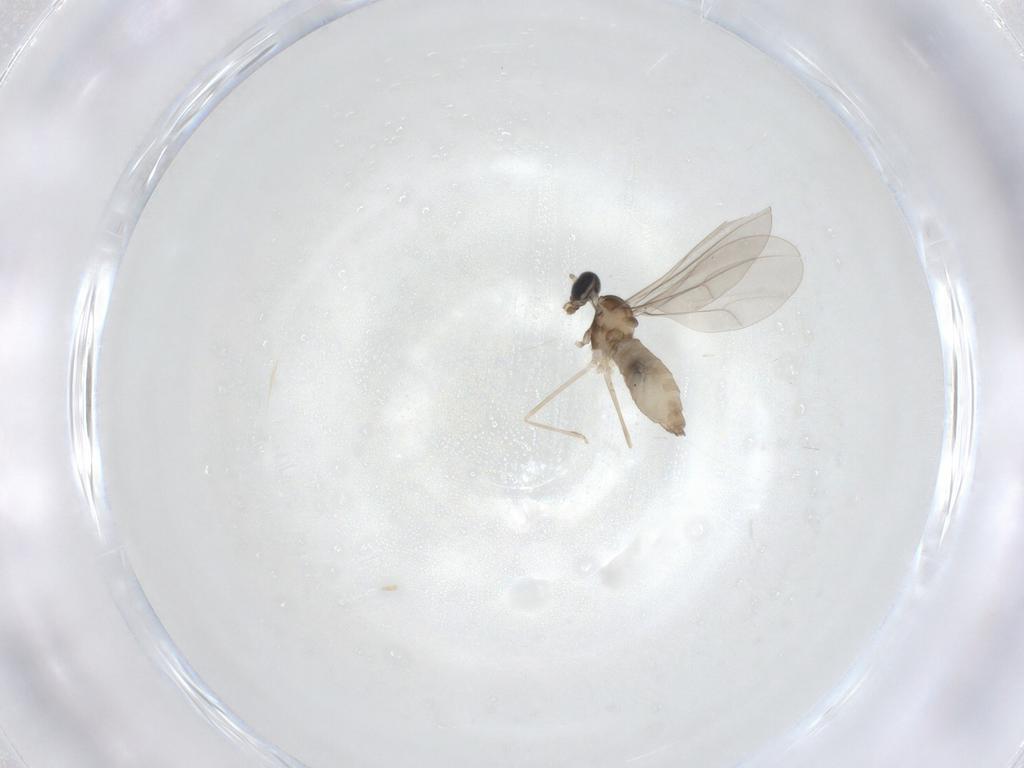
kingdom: Animalia
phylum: Arthropoda
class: Insecta
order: Diptera
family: Cecidomyiidae
